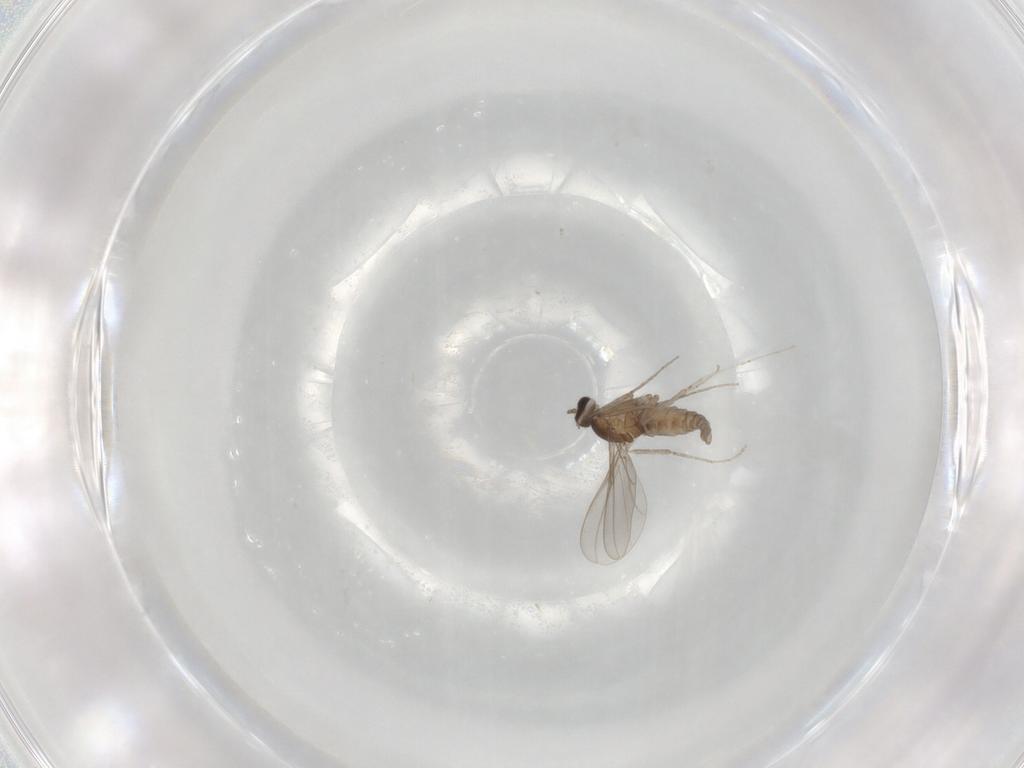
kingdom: Animalia
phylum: Arthropoda
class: Insecta
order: Diptera
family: Cecidomyiidae
